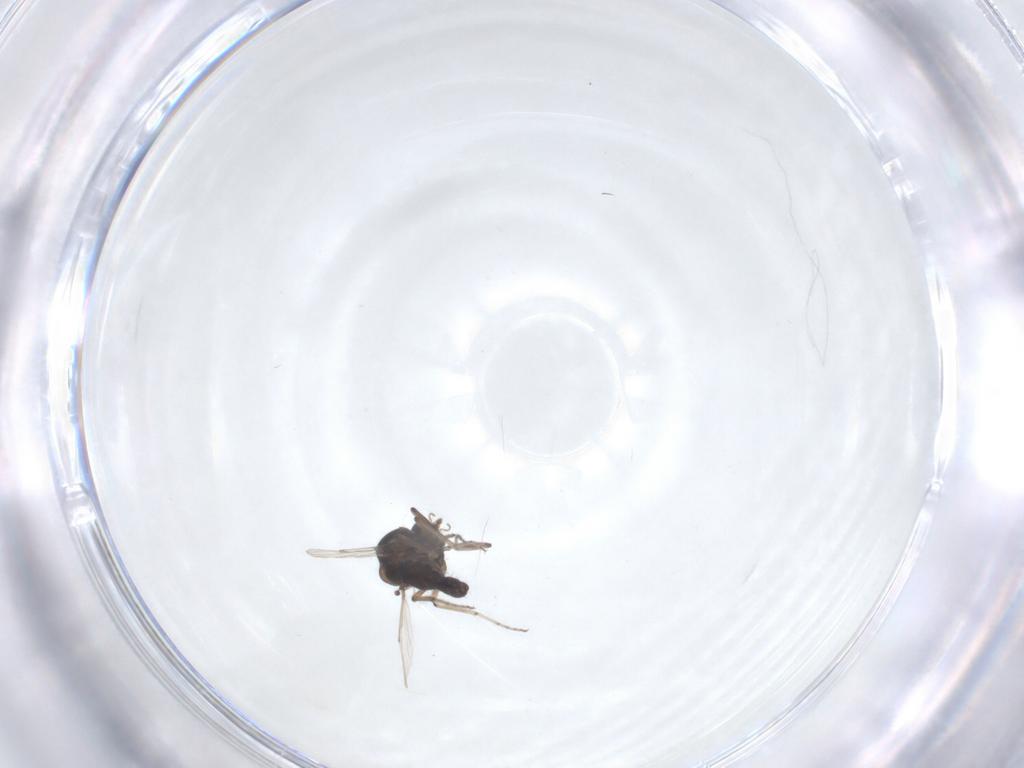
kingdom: Animalia
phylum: Arthropoda
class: Insecta
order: Diptera
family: Ceratopogonidae
